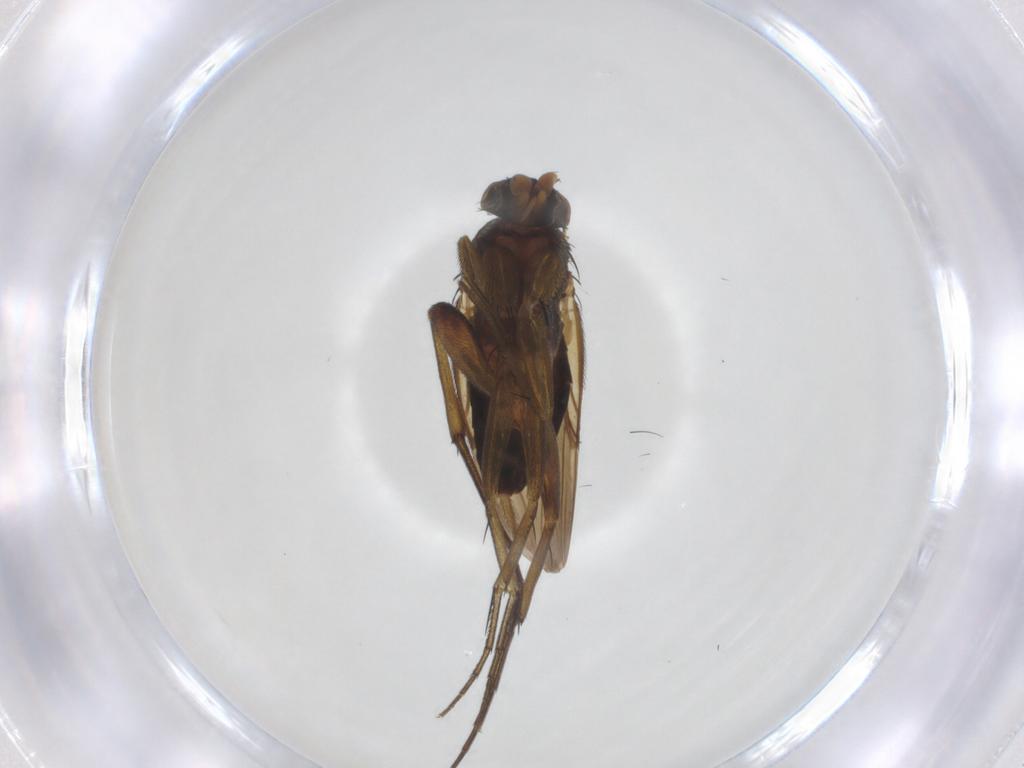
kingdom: Animalia
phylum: Arthropoda
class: Insecta
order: Diptera
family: Phoridae
